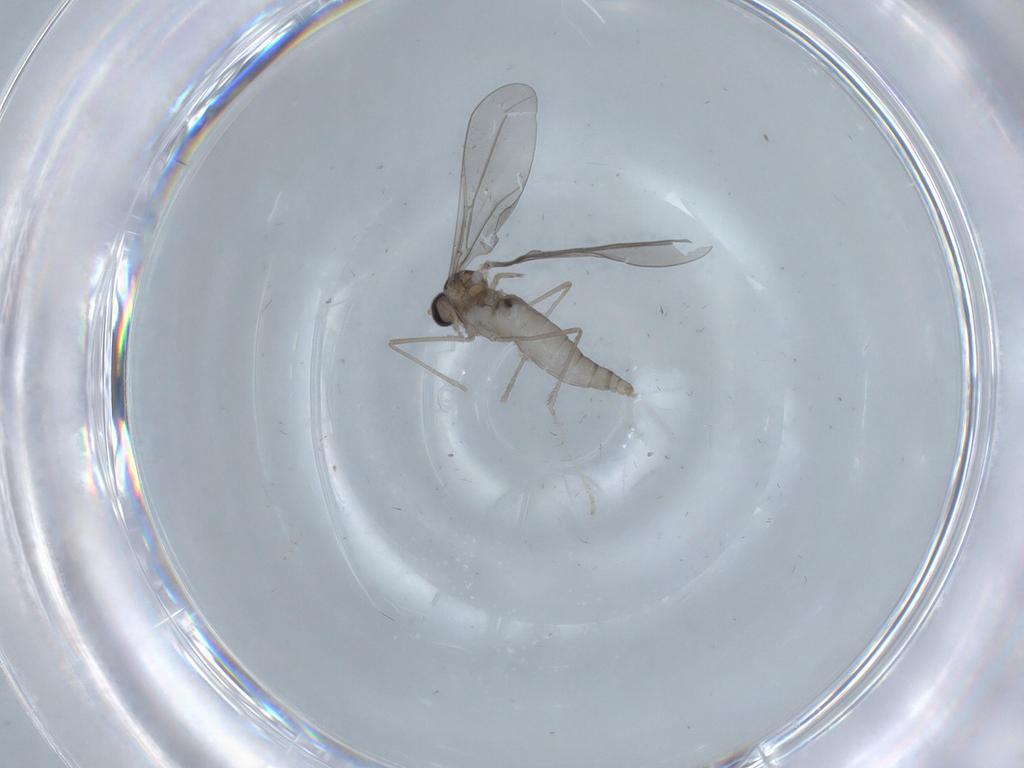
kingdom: Animalia
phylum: Arthropoda
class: Insecta
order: Diptera
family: Cecidomyiidae
